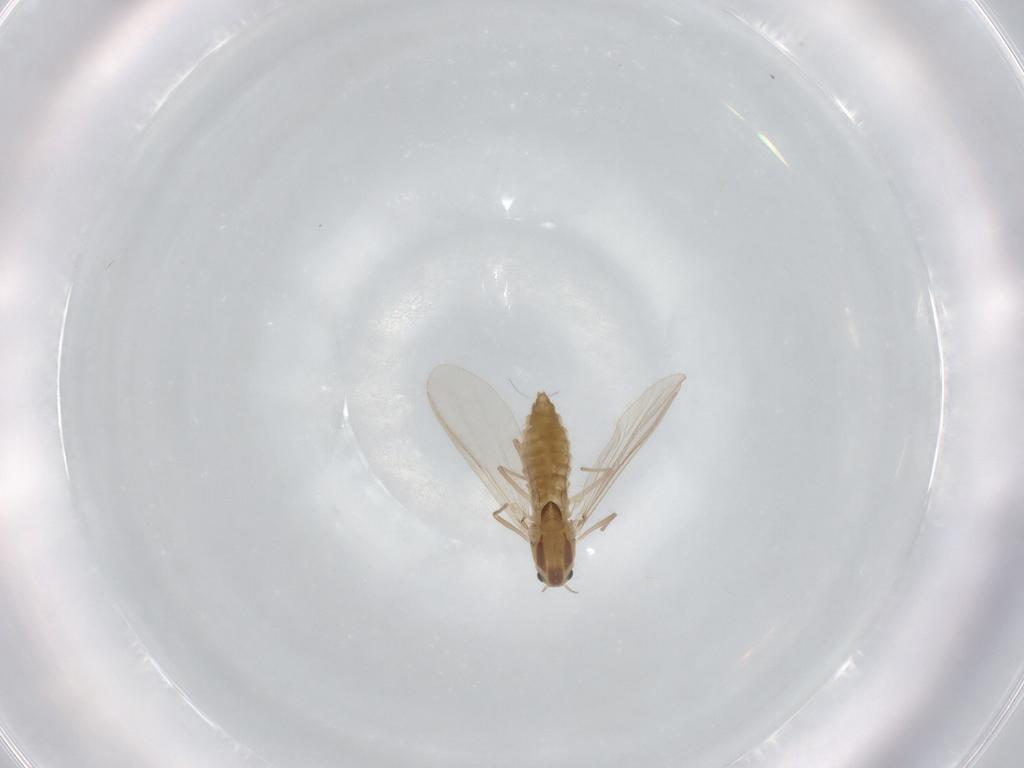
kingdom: Animalia
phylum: Arthropoda
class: Insecta
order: Diptera
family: Chironomidae
